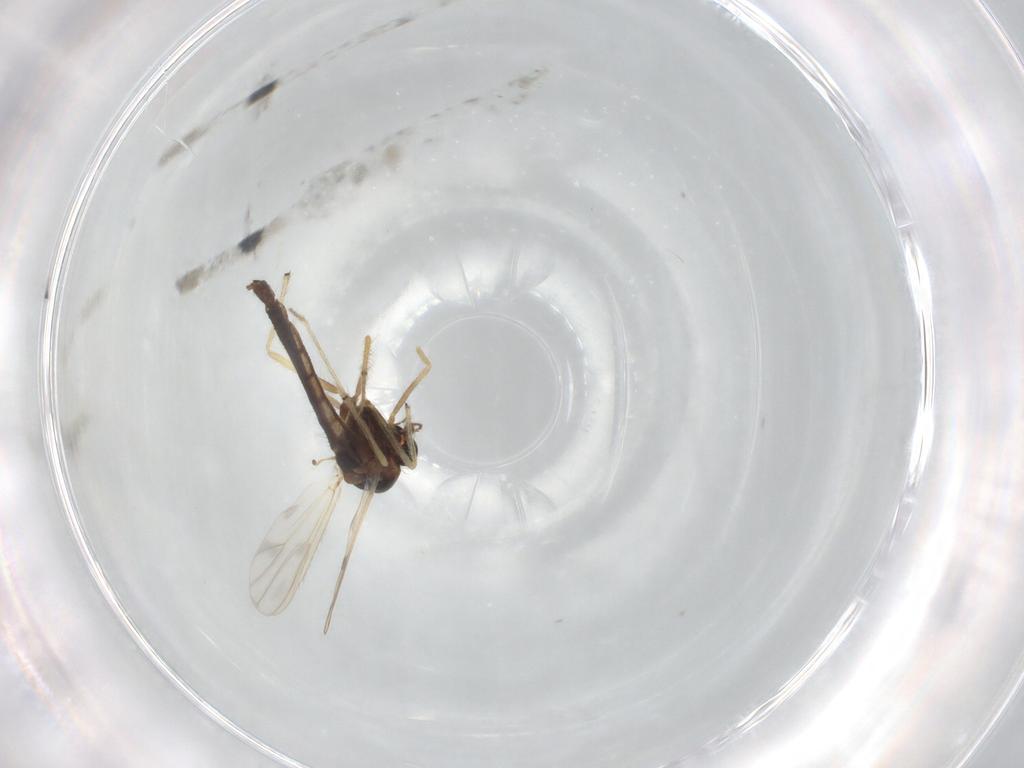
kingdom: Animalia
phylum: Arthropoda
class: Insecta
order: Diptera
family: Chironomidae
